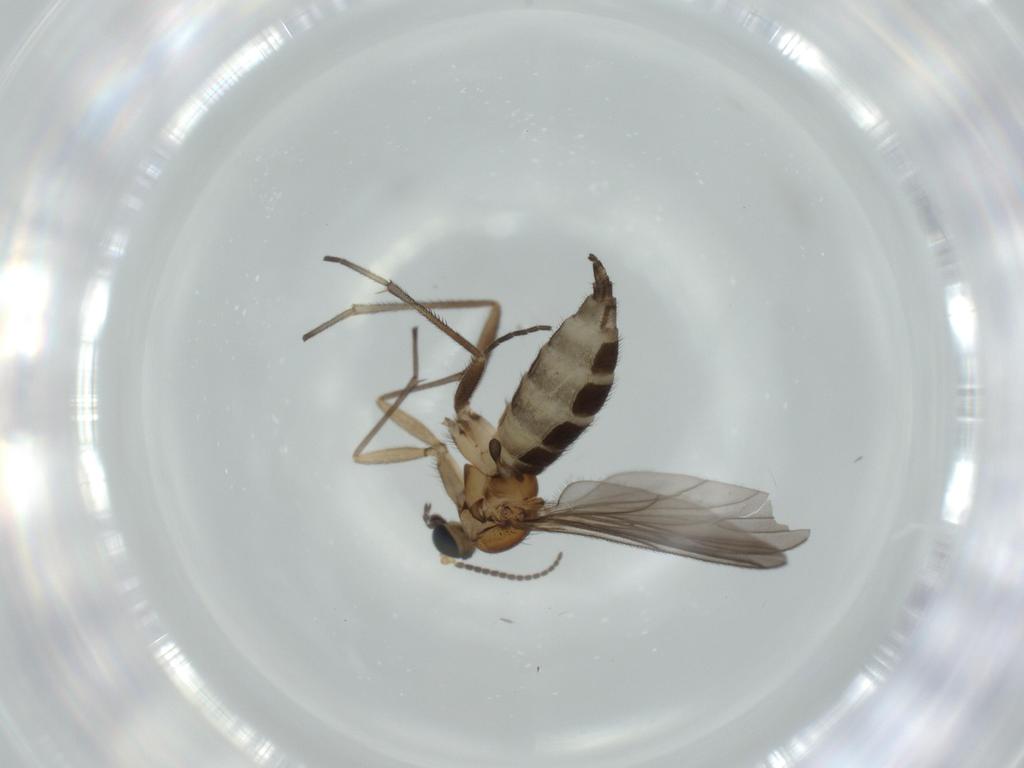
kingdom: Animalia
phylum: Arthropoda
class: Insecta
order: Diptera
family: Sciaridae
